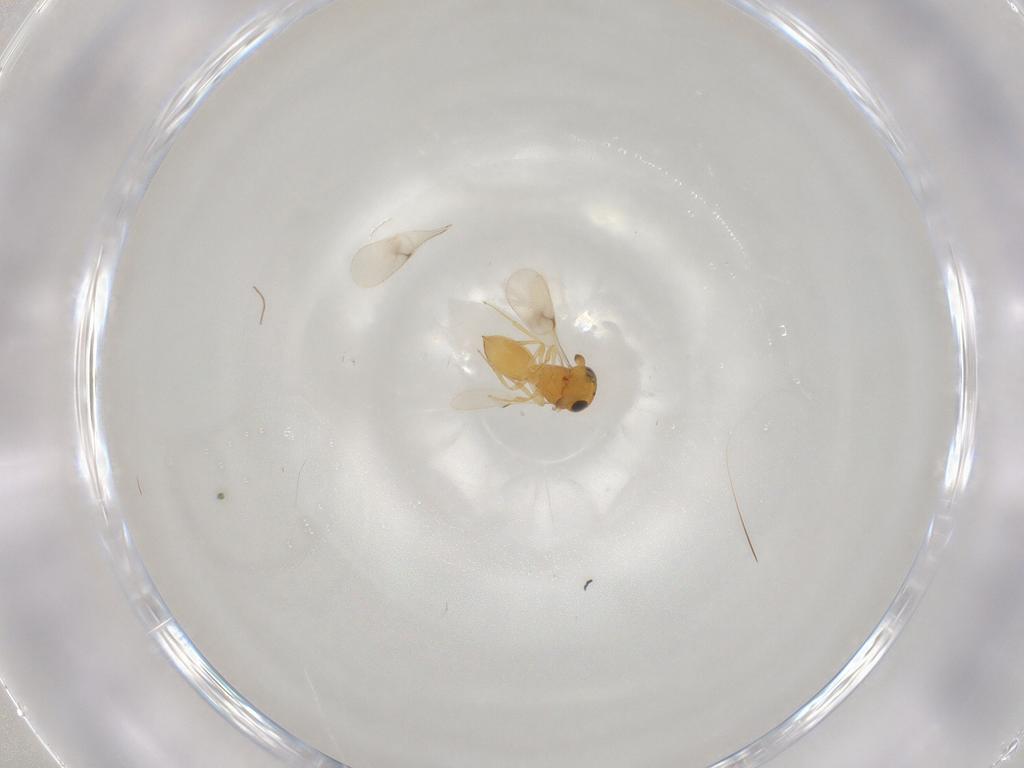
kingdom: Animalia
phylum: Arthropoda
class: Insecta
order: Hymenoptera
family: Scelionidae
